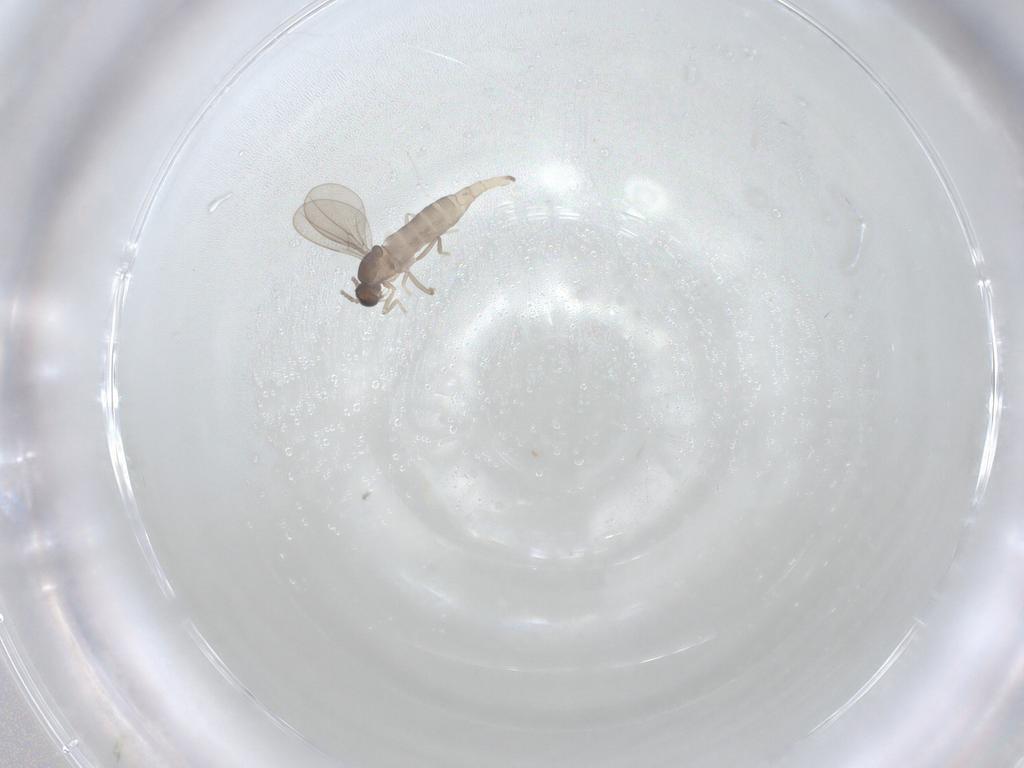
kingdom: Animalia
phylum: Arthropoda
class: Insecta
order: Diptera
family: Cecidomyiidae
